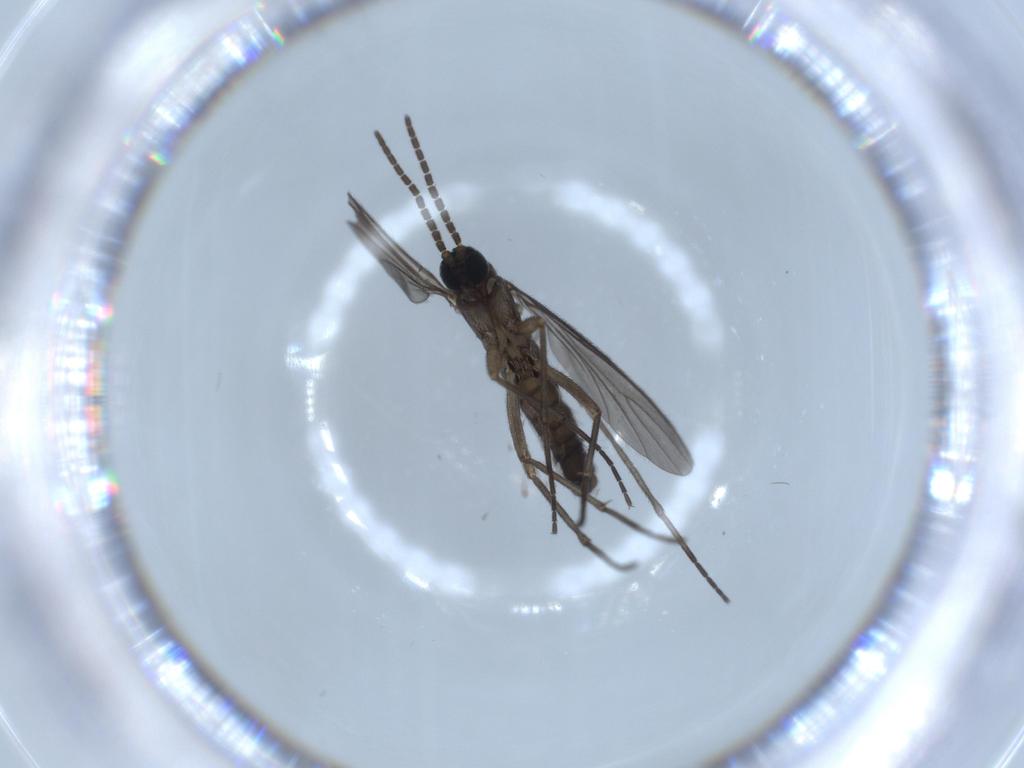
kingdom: Animalia
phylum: Arthropoda
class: Insecta
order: Diptera
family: Sciaridae
